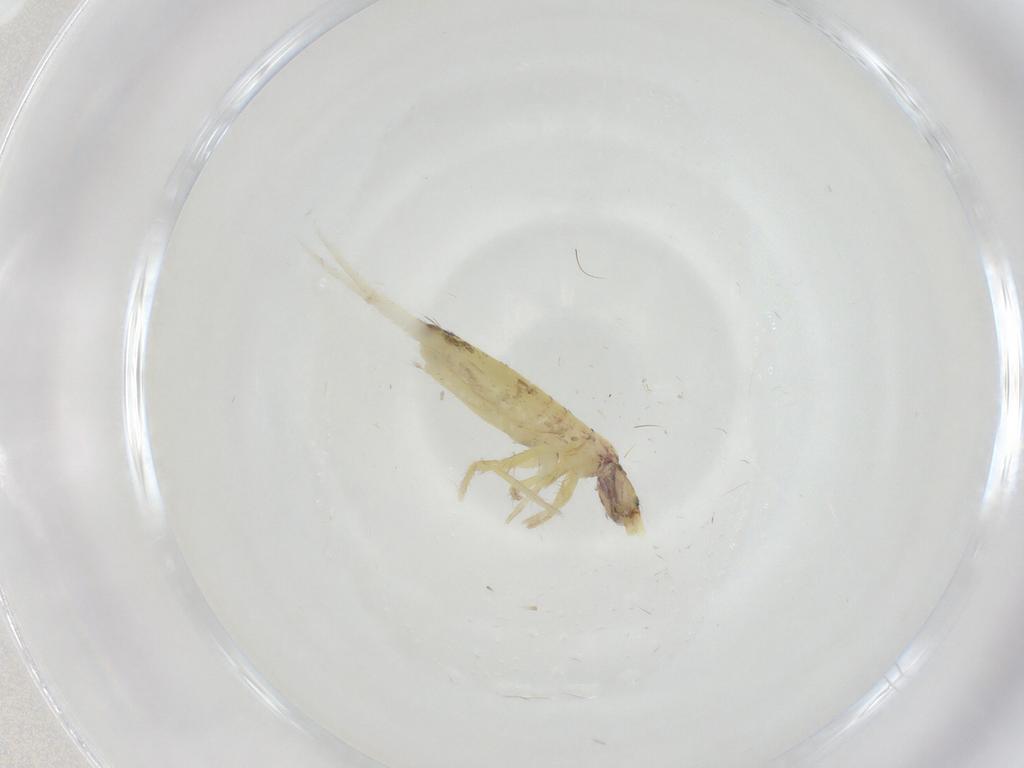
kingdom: Animalia
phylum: Arthropoda
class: Collembola
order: Entomobryomorpha
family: Entomobryidae
